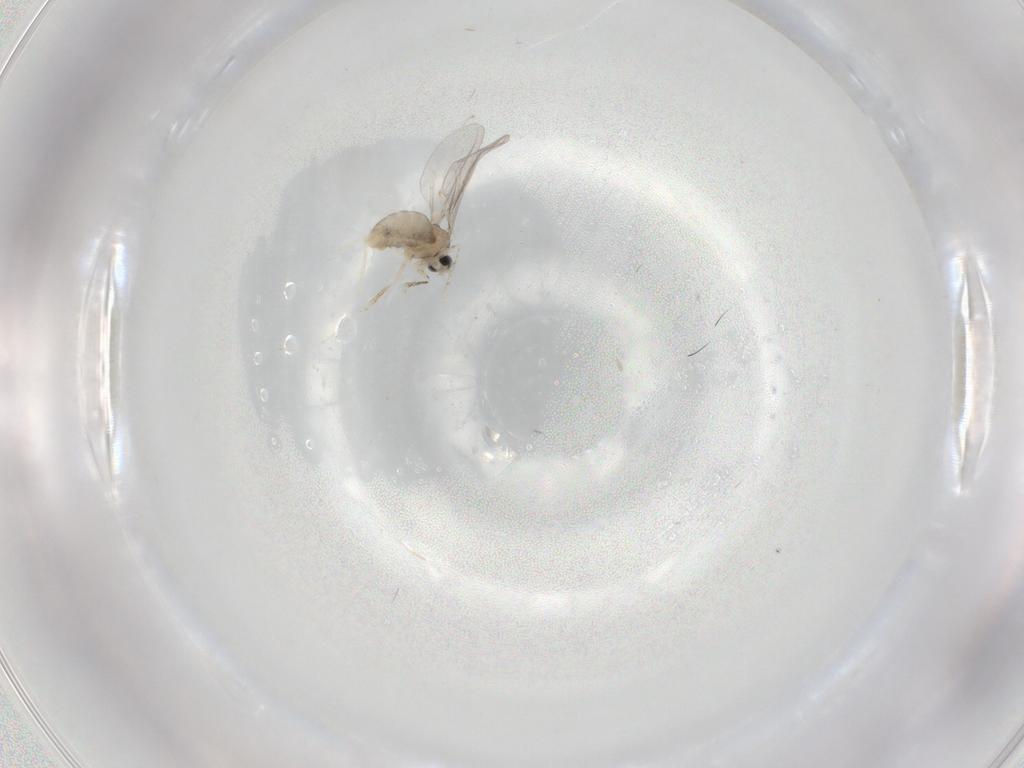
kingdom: Animalia
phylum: Arthropoda
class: Insecta
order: Diptera
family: Cecidomyiidae
